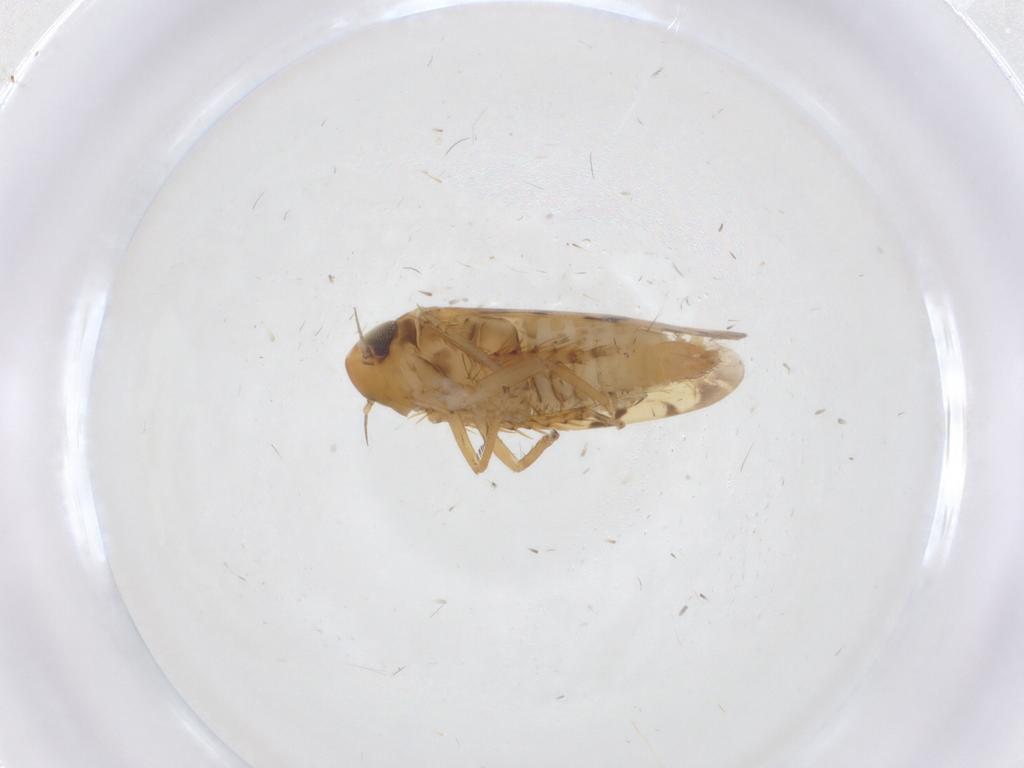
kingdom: Animalia
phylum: Arthropoda
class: Insecta
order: Hemiptera
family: Cicadellidae
